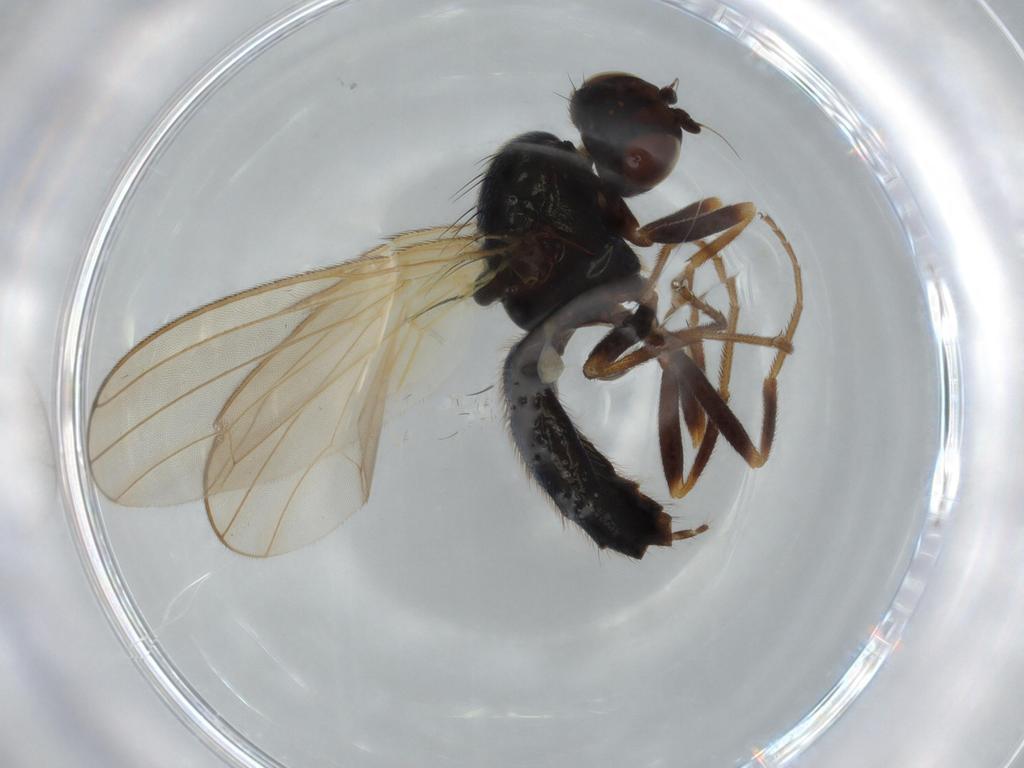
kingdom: Animalia
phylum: Arthropoda
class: Insecta
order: Diptera
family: Psilidae
